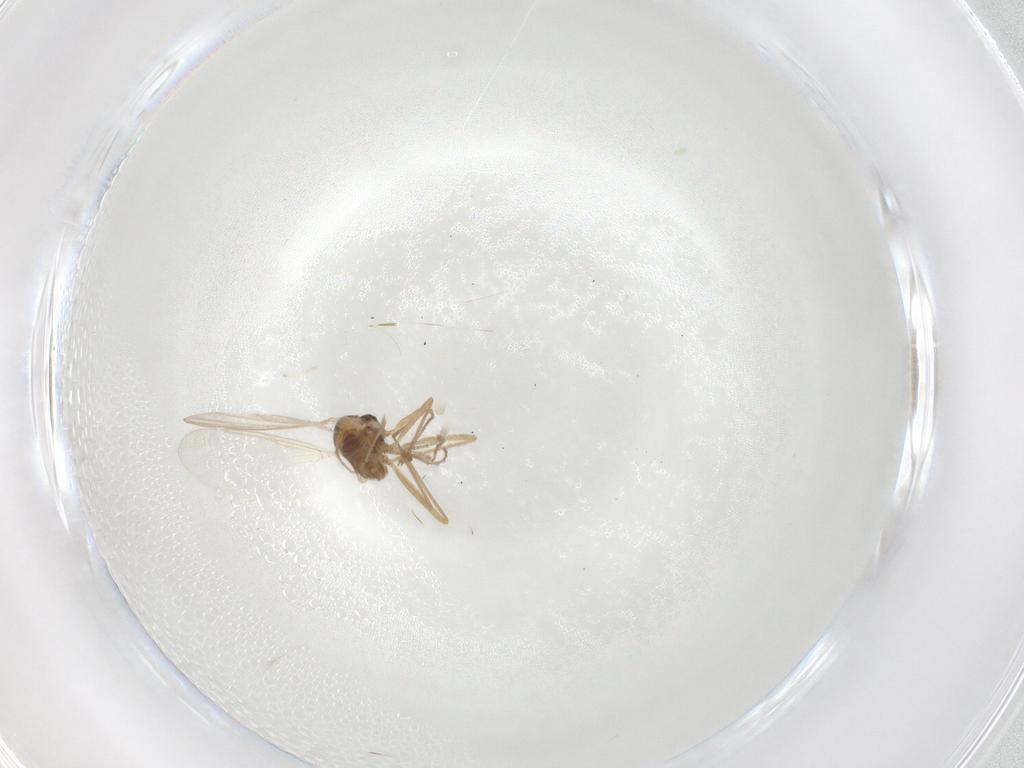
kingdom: Animalia
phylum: Arthropoda
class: Insecta
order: Diptera
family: Cecidomyiidae
